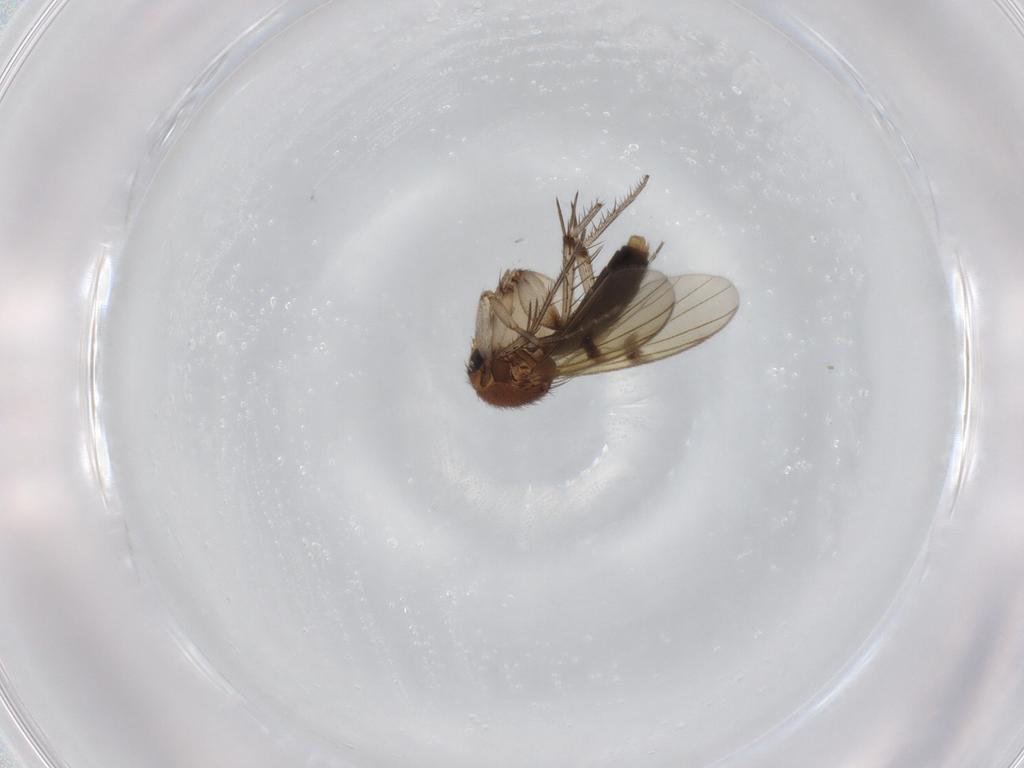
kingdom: Animalia
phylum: Arthropoda
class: Insecta
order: Diptera
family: Mycetophilidae
